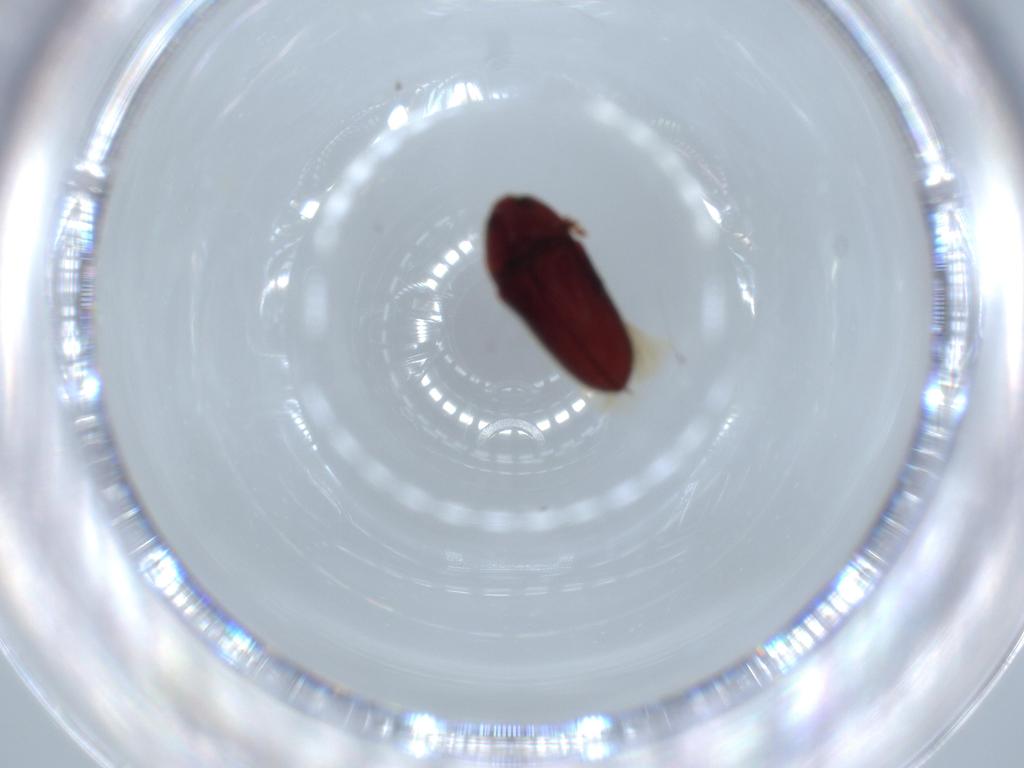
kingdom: Animalia
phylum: Arthropoda
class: Insecta
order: Coleoptera
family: Throscidae
